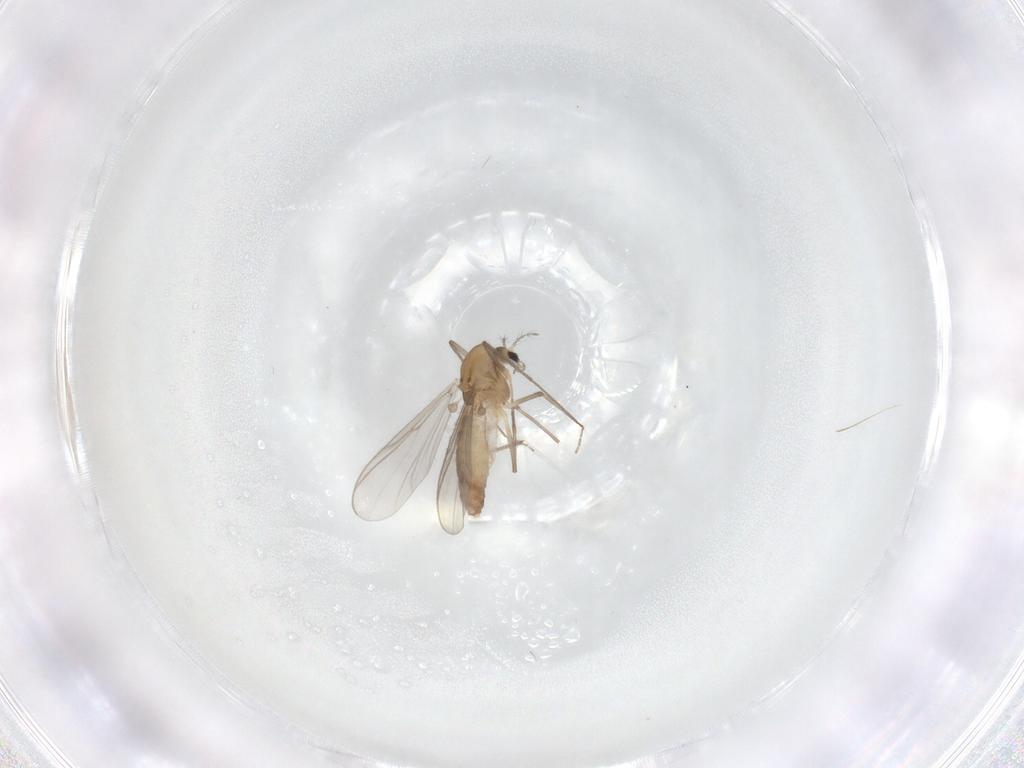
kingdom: Animalia
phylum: Arthropoda
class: Insecta
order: Diptera
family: Chironomidae
